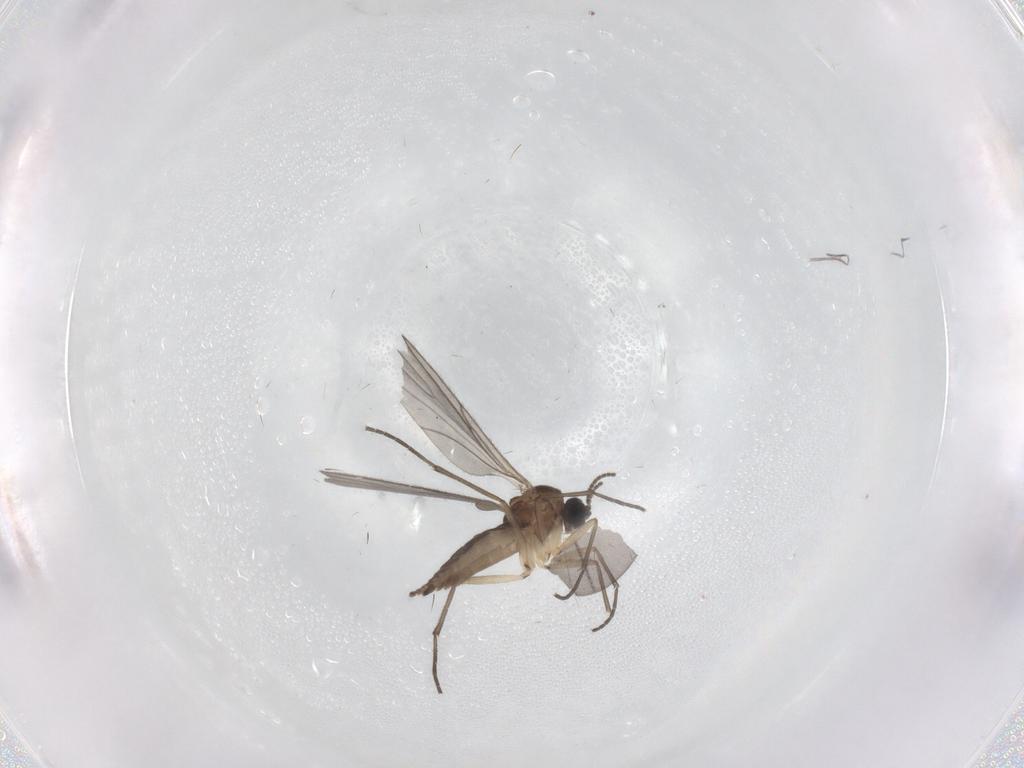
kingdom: Animalia
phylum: Arthropoda
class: Insecta
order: Diptera
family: Sciaridae
